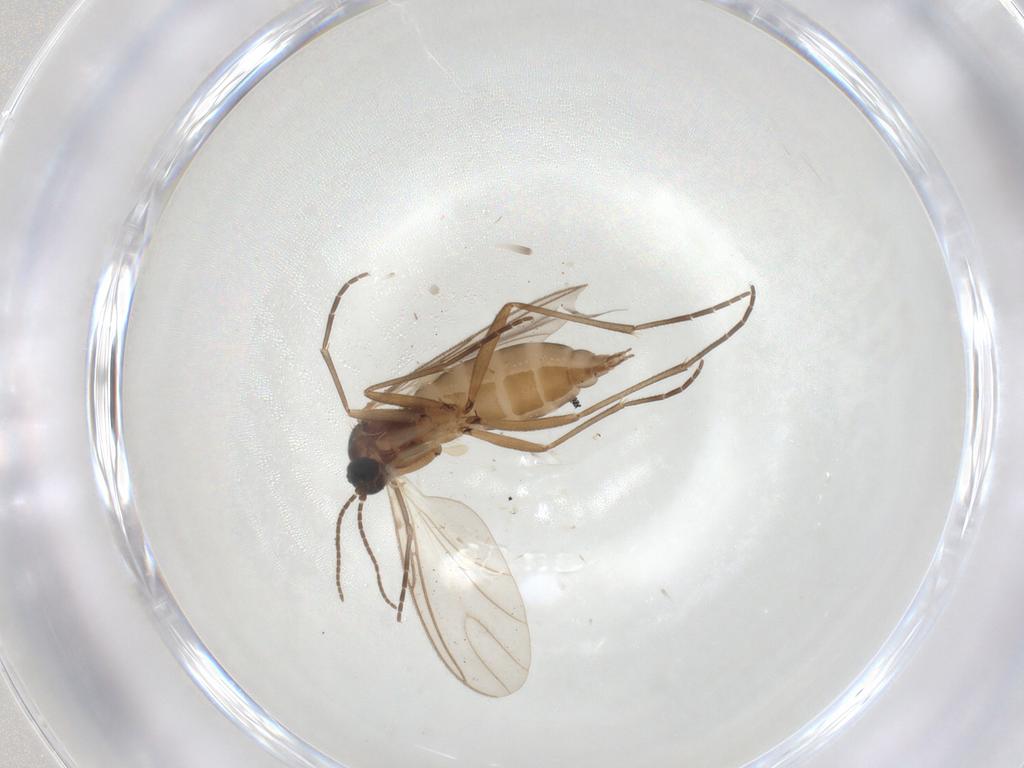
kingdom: Animalia
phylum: Arthropoda
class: Insecta
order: Diptera
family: Sciaridae
